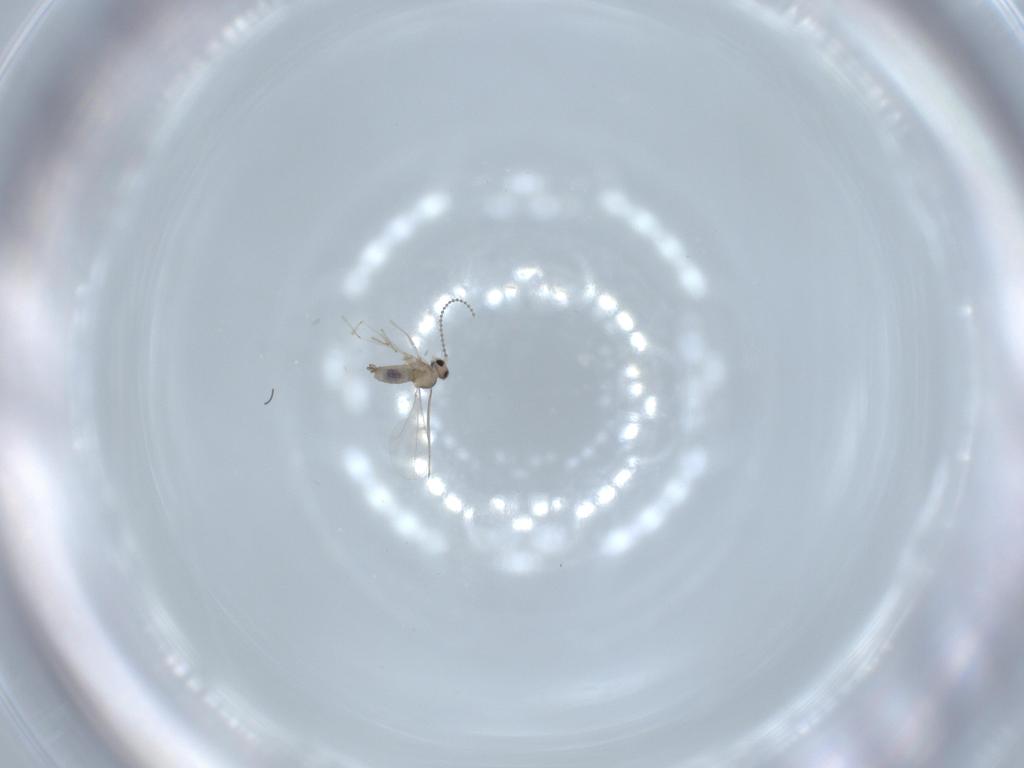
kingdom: Animalia
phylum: Arthropoda
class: Insecta
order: Diptera
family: Cecidomyiidae
